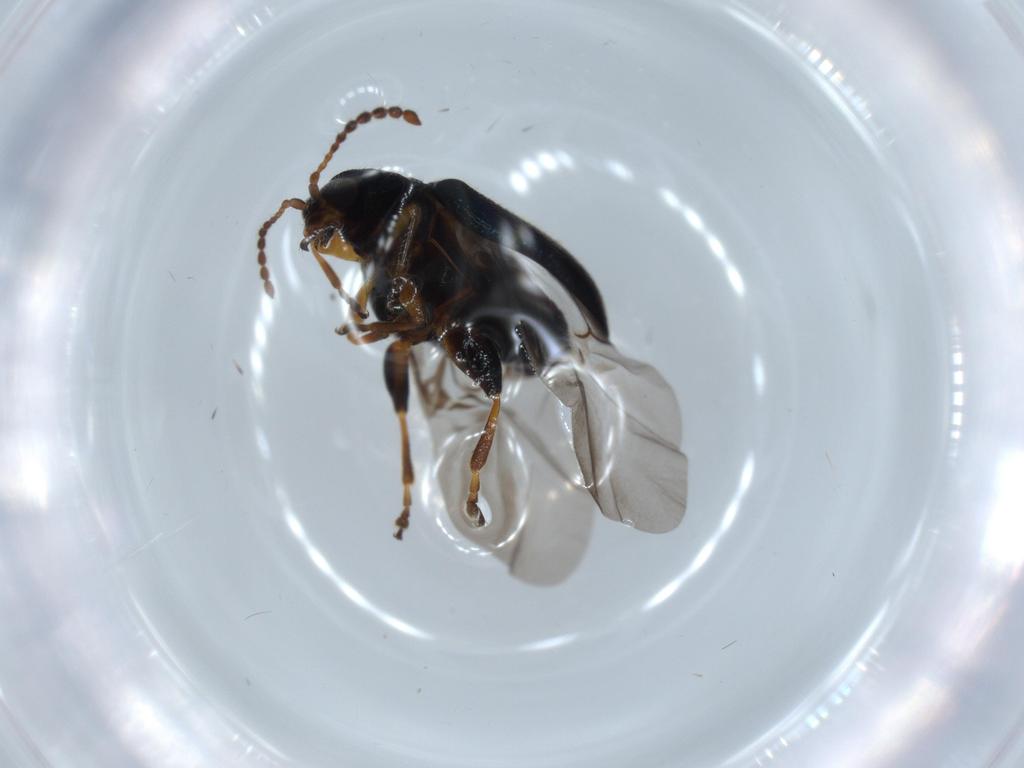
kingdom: Animalia
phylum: Arthropoda
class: Insecta
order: Coleoptera
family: Chrysomelidae
